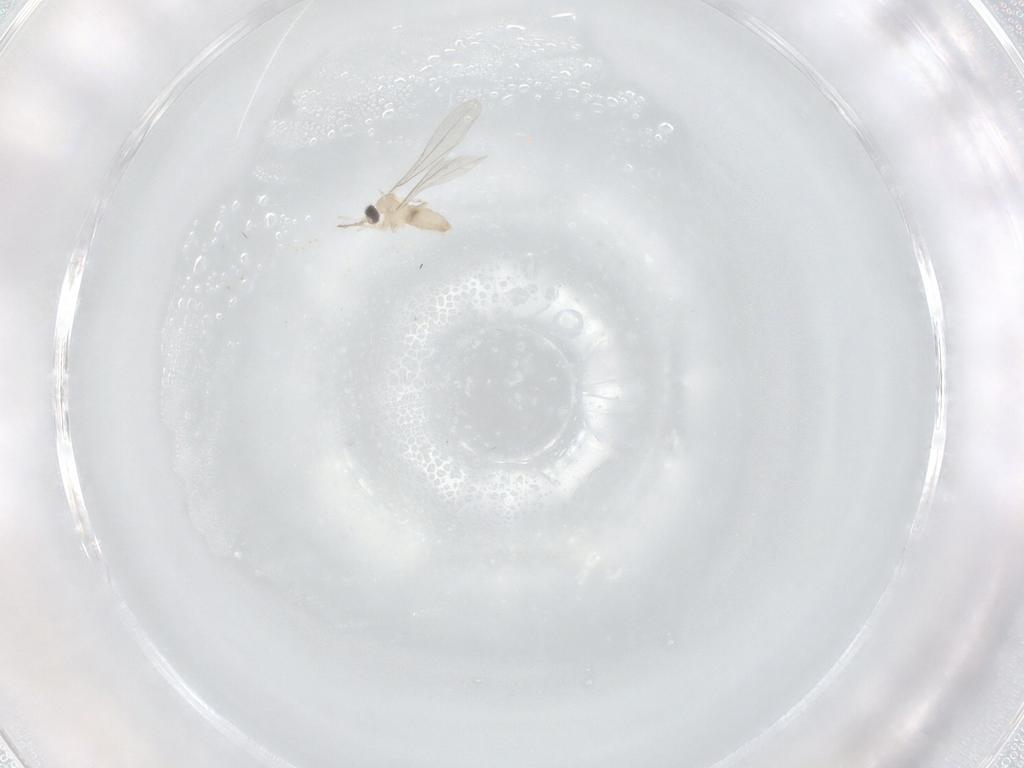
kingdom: Animalia
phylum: Arthropoda
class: Insecta
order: Diptera
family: Cecidomyiidae
